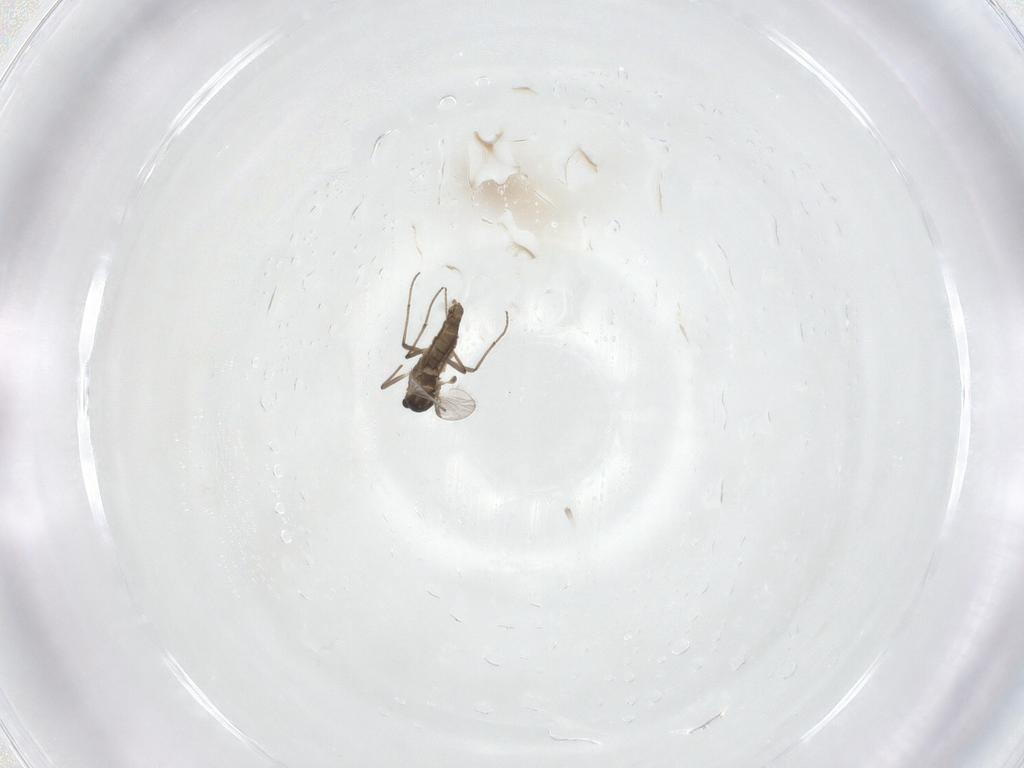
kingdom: Animalia
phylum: Arthropoda
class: Insecta
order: Diptera
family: Chironomidae
